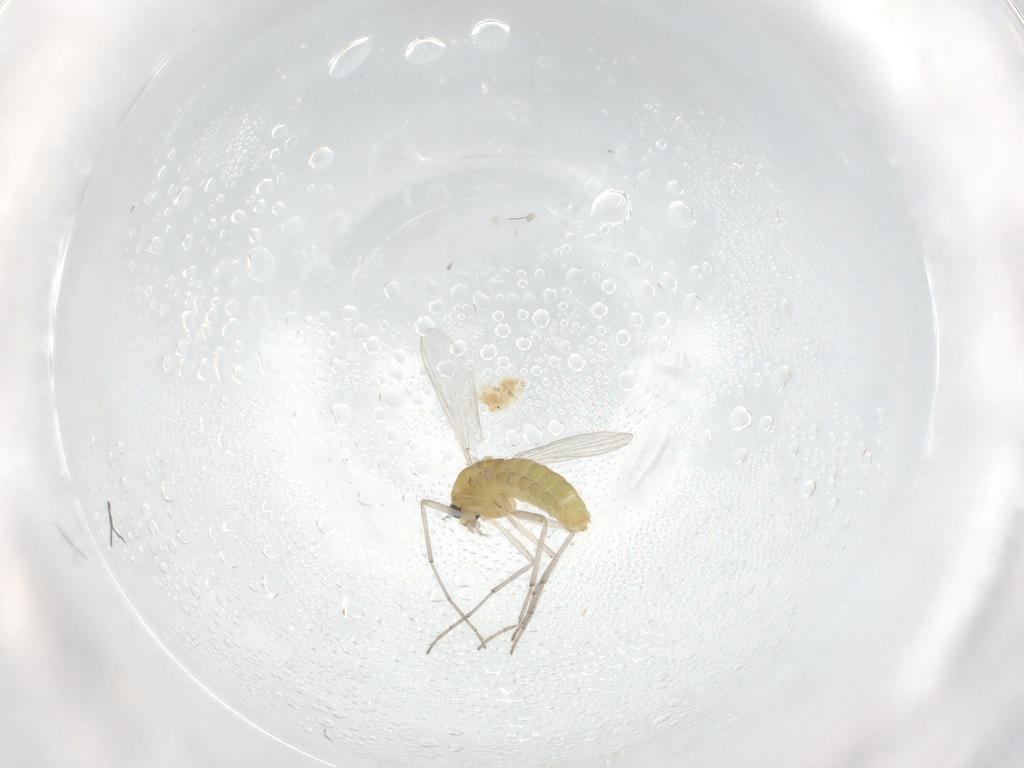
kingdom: Animalia
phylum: Arthropoda
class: Insecta
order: Diptera
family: Chironomidae
